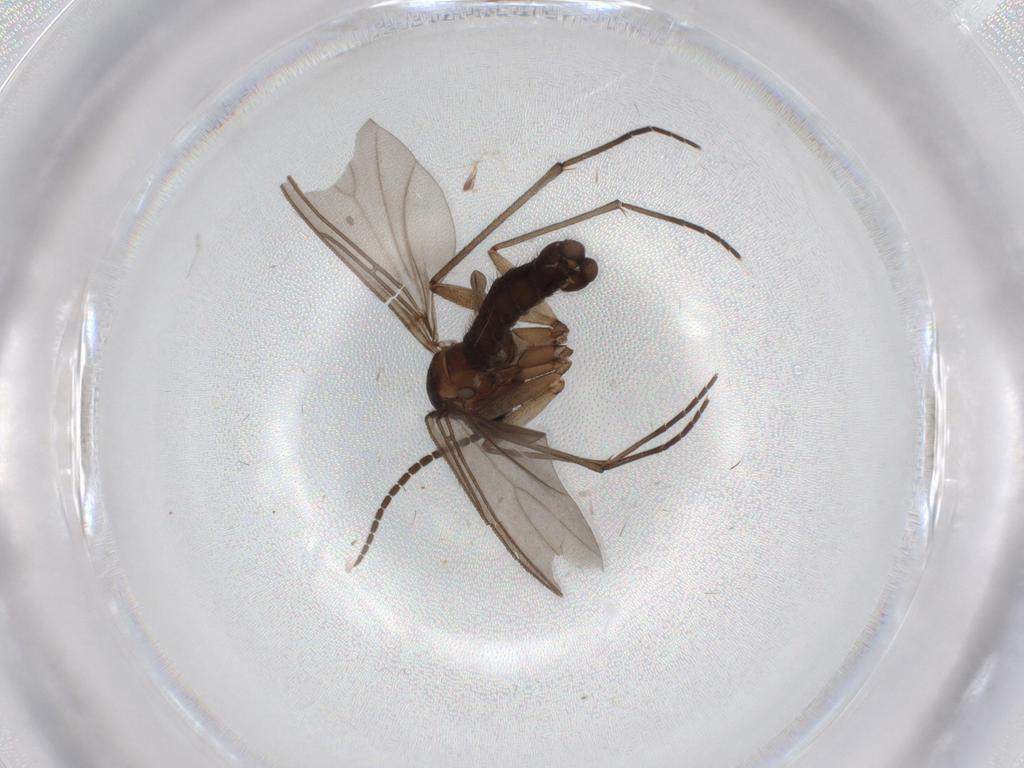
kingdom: Animalia
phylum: Arthropoda
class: Insecta
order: Diptera
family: Sciaridae
